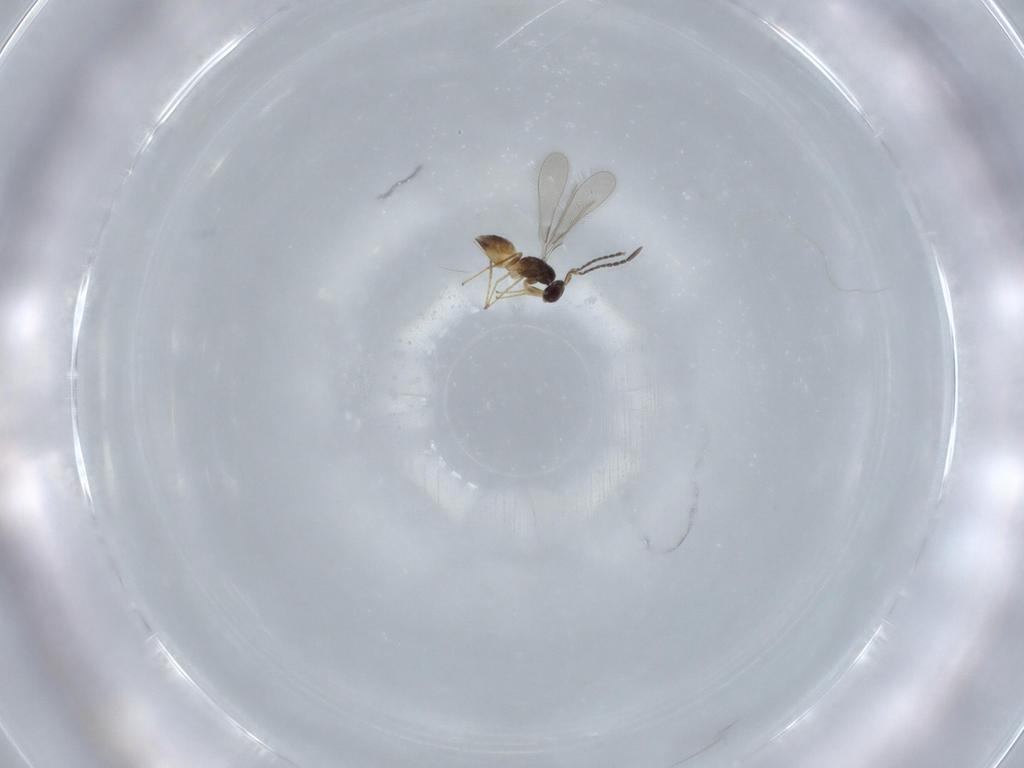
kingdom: Animalia
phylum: Arthropoda
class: Insecta
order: Hymenoptera
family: Mymaridae
